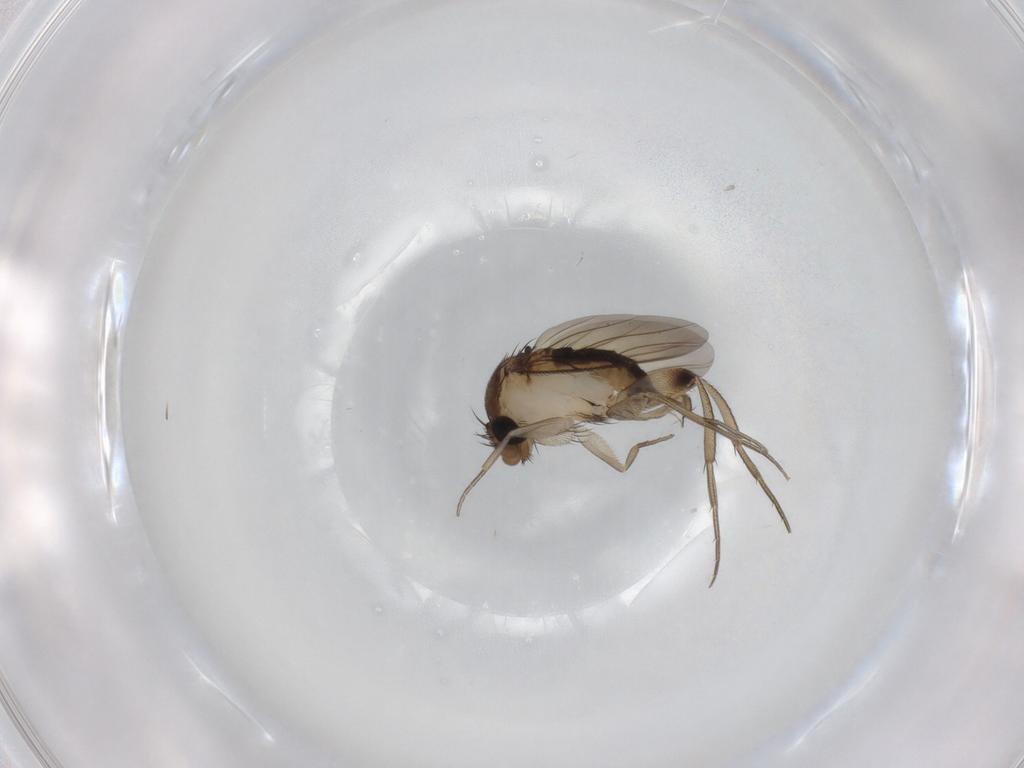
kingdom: Animalia
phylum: Arthropoda
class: Insecta
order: Diptera
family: Phoridae
